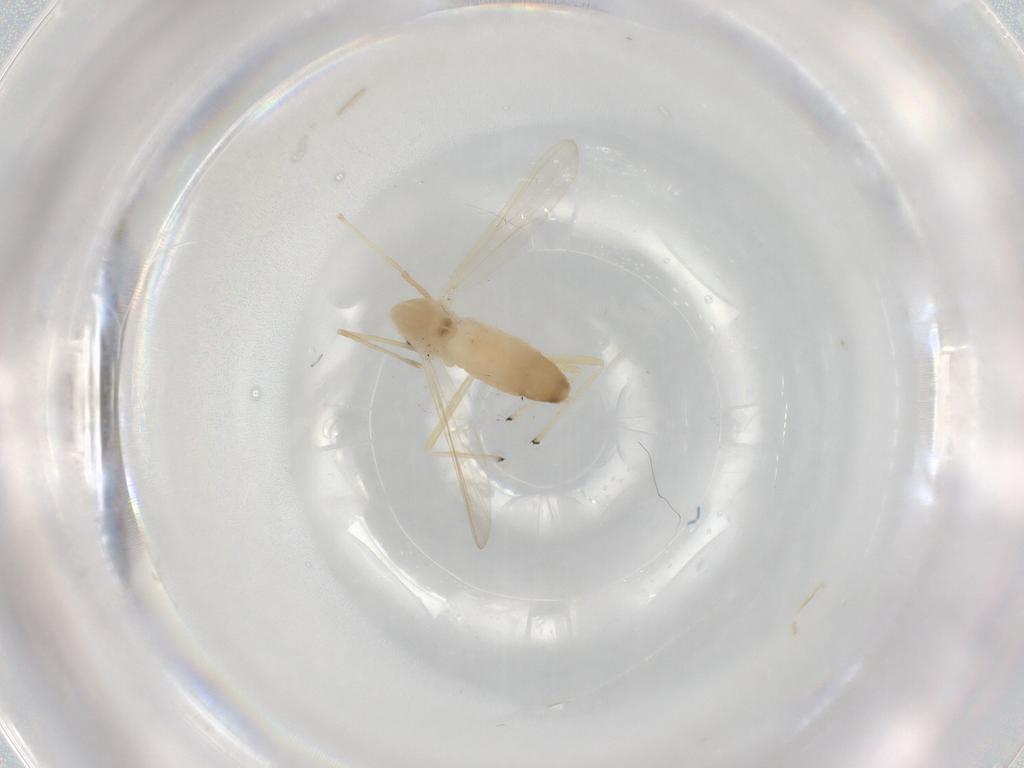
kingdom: Animalia
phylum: Arthropoda
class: Insecta
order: Diptera
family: Chironomidae
